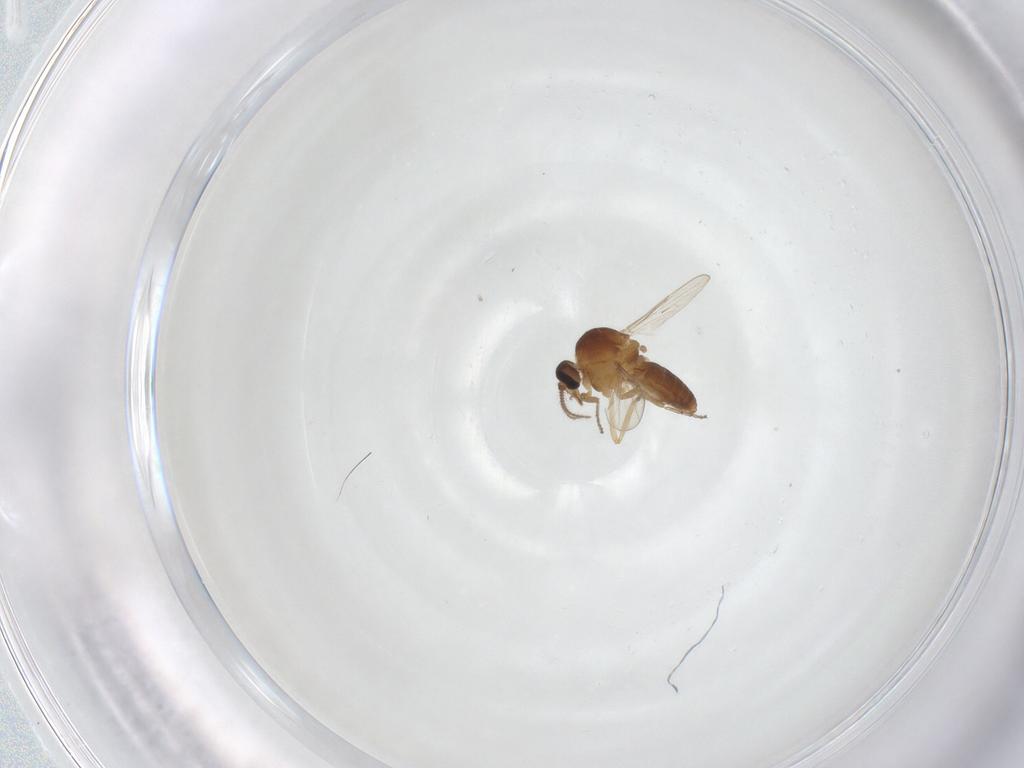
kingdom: Animalia
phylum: Arthropoda
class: Insecta
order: Diptera
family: Ceratopogonidae
